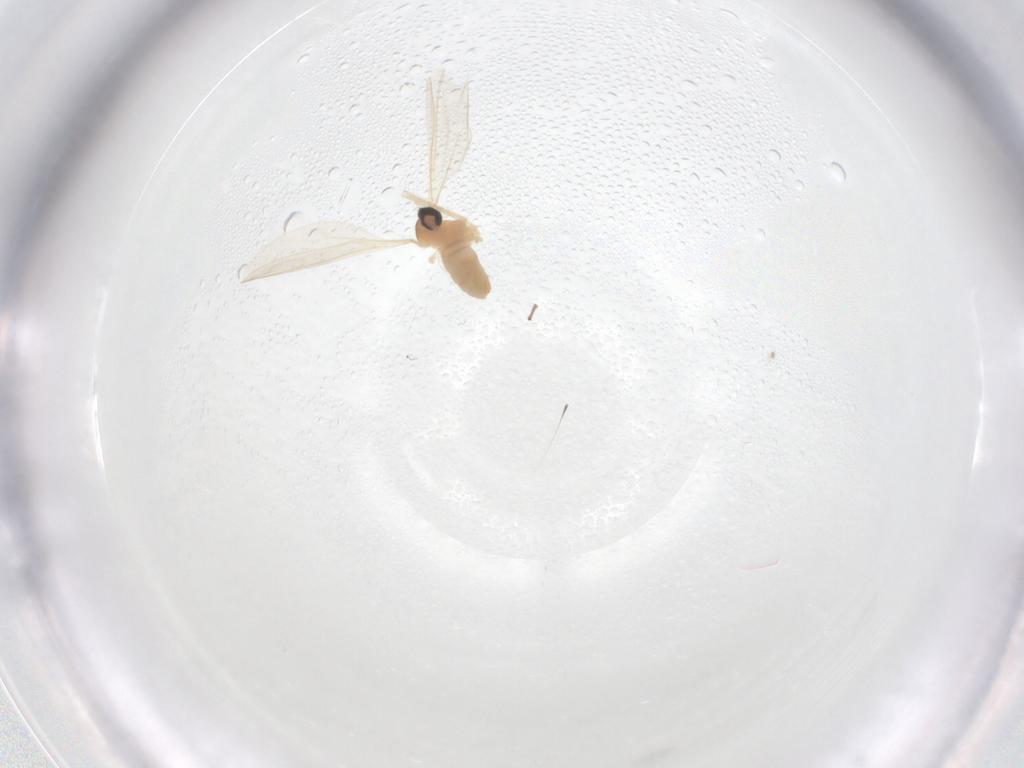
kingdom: Animalia
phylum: Arthropoda
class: Insecta
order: Diptera
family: Cecidomyiidae
